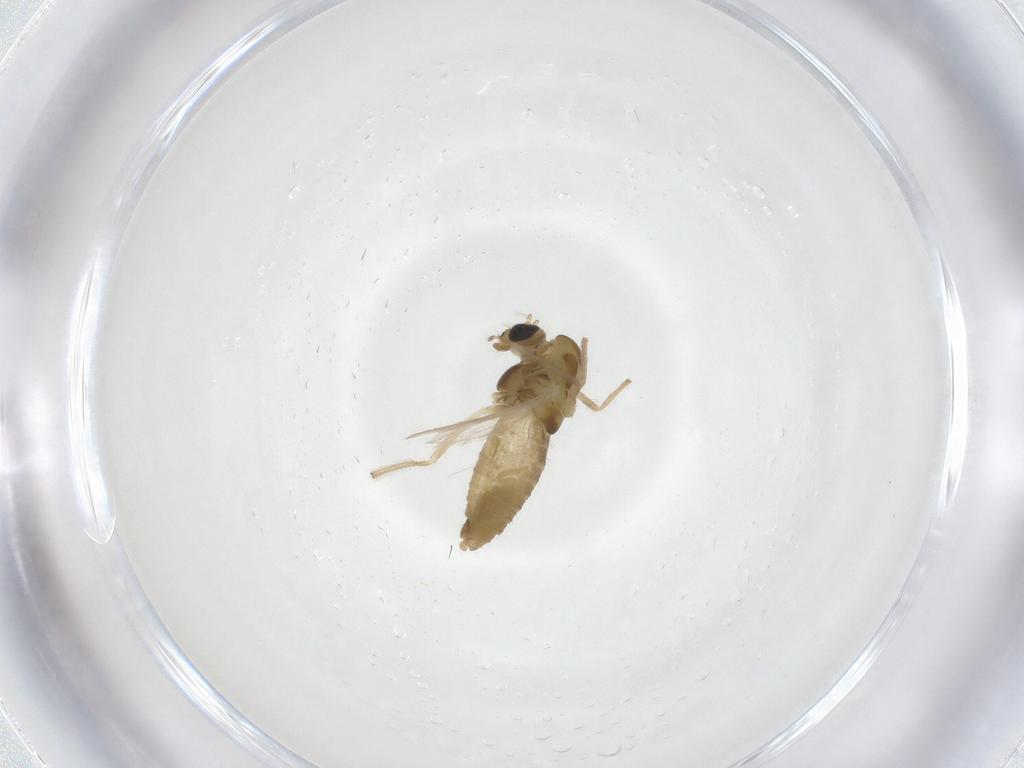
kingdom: Animalia
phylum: Arthropoda
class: Insecta
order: Diptera
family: Chironomidae
